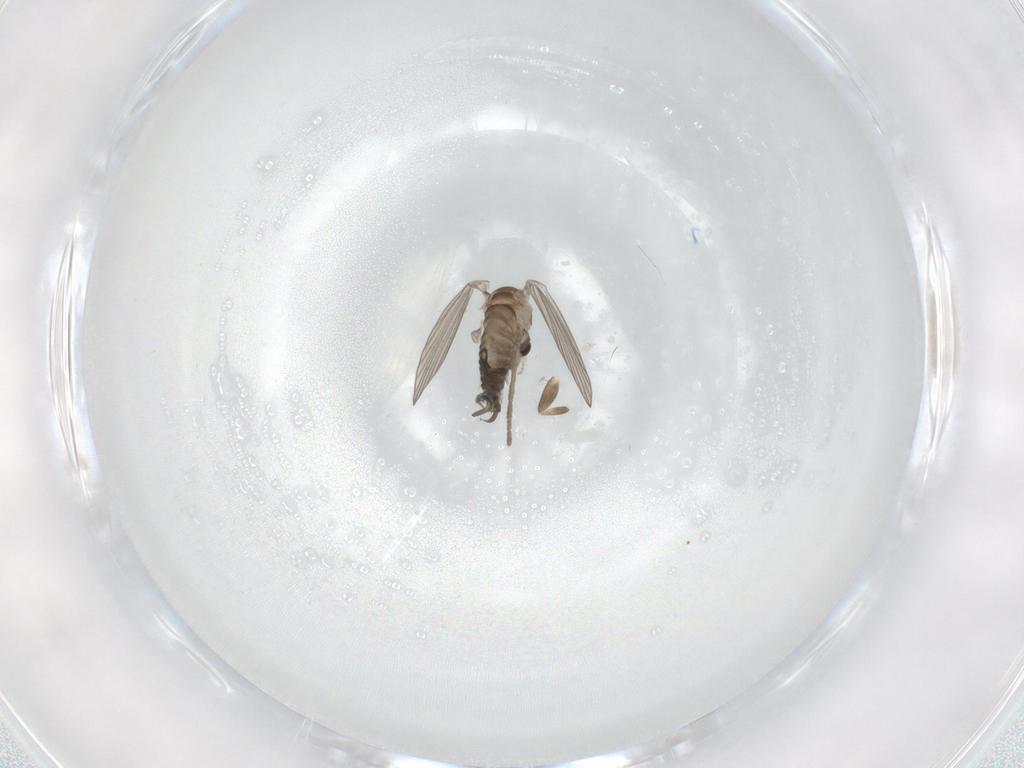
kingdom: Animalia
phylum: Arthropoda
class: Insecta
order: Diptera
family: Psychodidae
